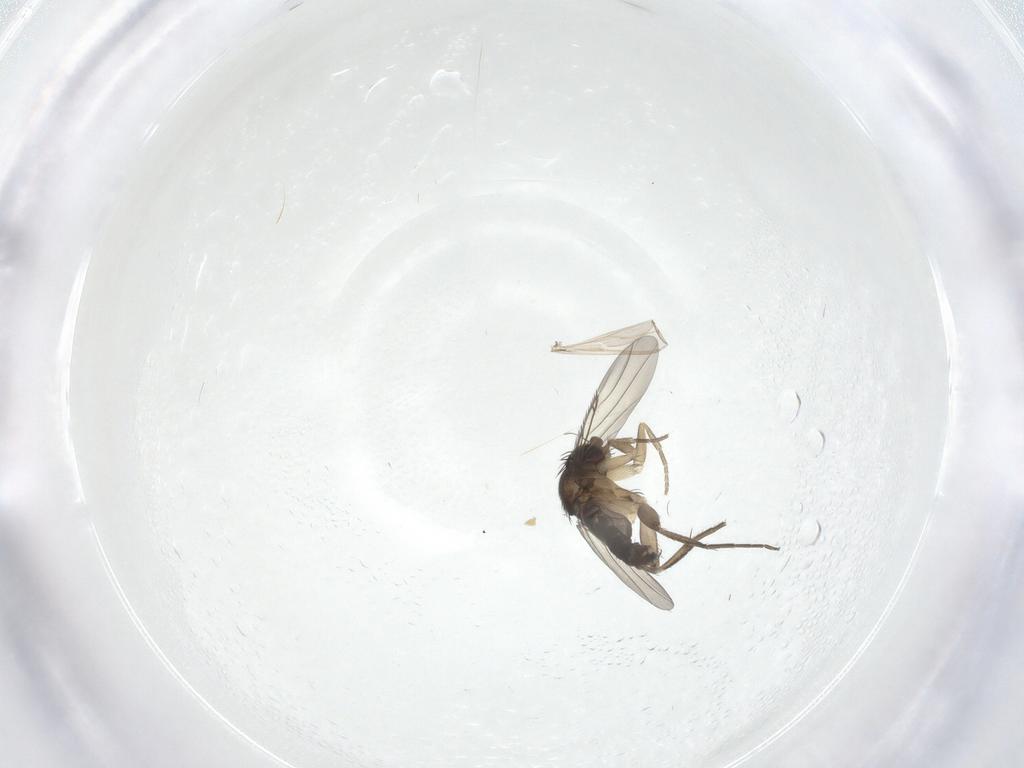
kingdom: Animalia
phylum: Arthropoda
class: Insecta
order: Diptera
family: Phoridae
